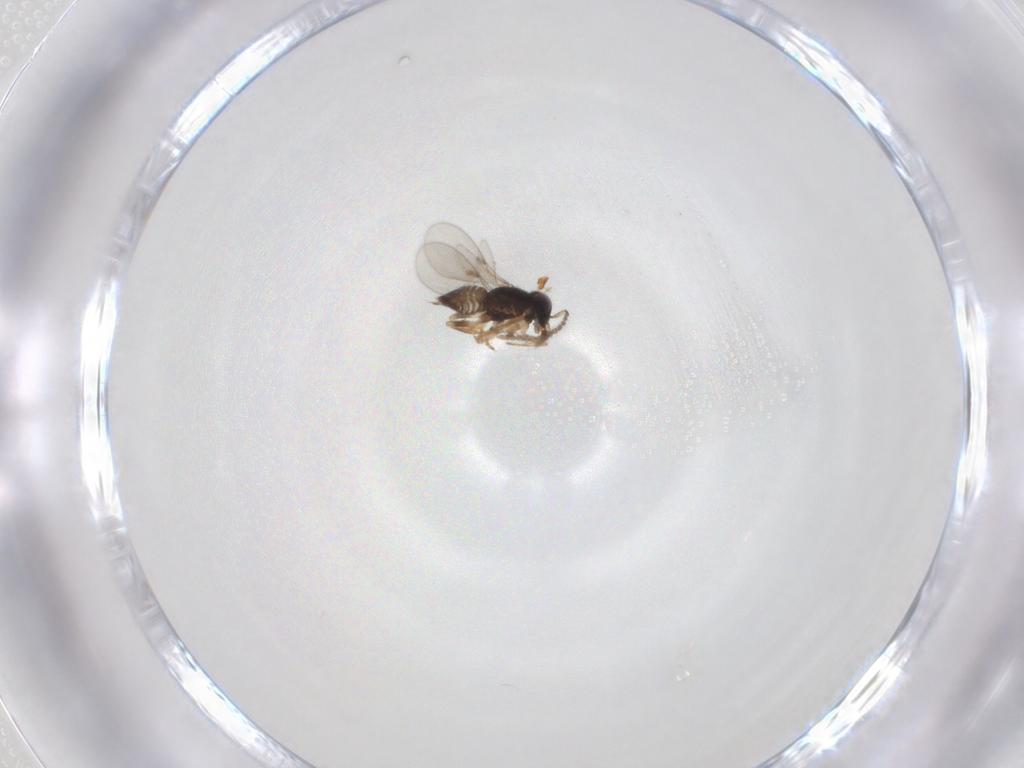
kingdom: Animalia
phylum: Arthropoda
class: Insecta
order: Hymenoptera
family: Encyrtidae
